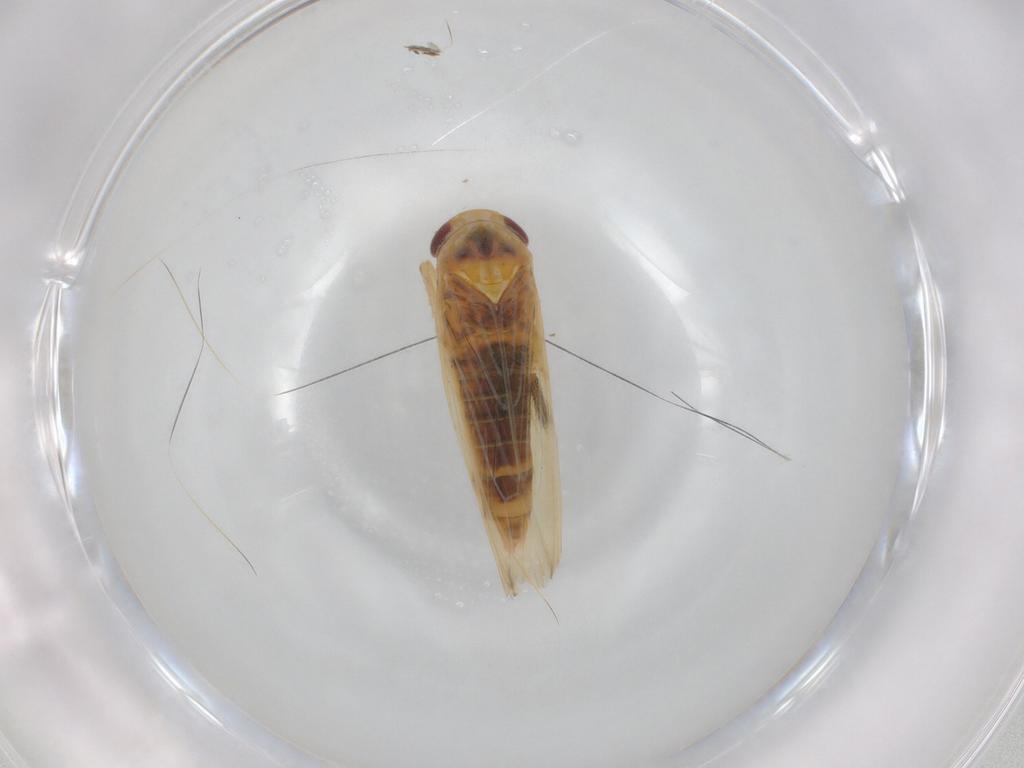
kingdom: Animalia
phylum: Arthropoda
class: Insecta
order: Hemiptera
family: Cicadellidae
